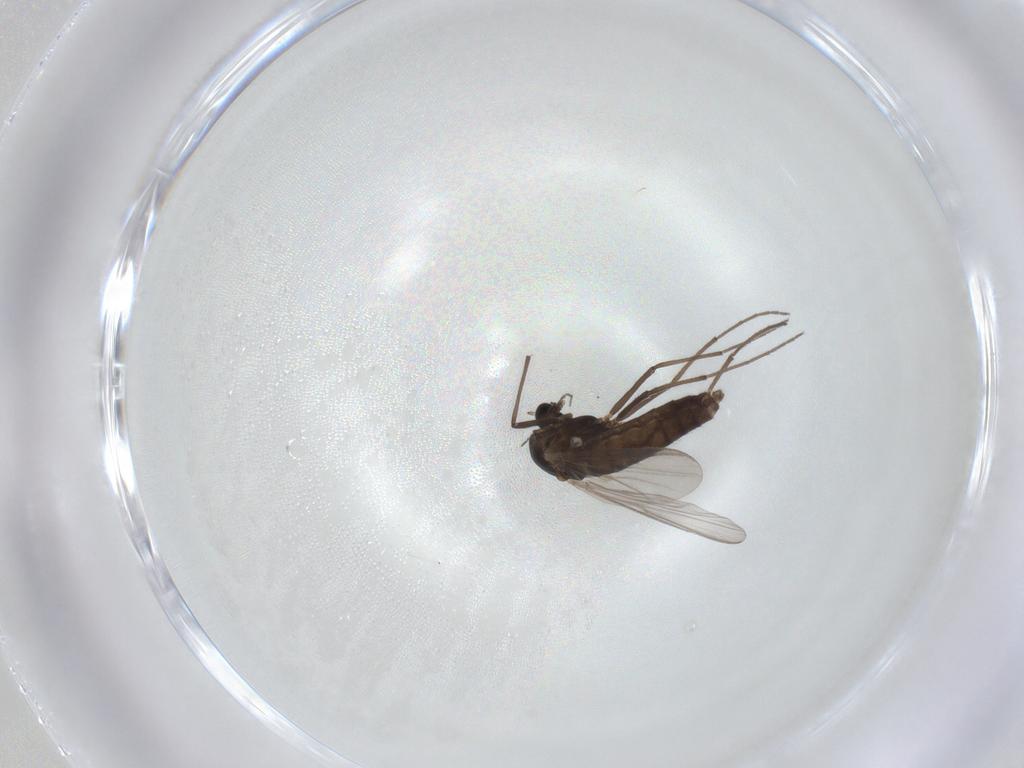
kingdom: Animalia
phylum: Arthropoda
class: Insecta
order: Diptera
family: Chironomidae
